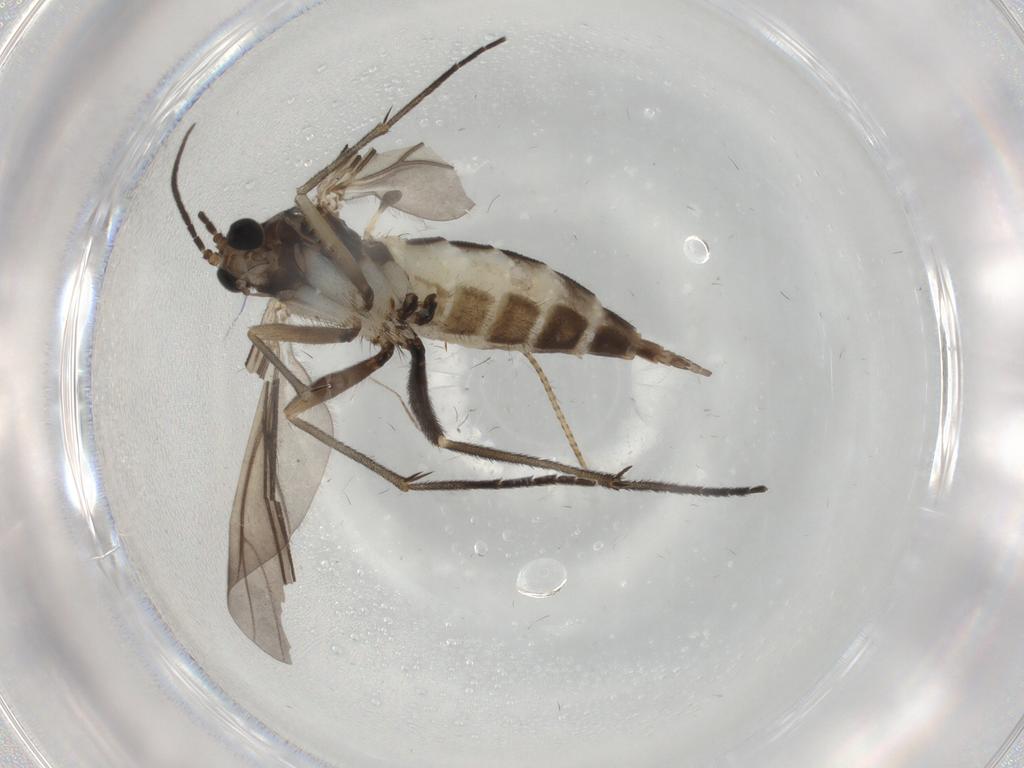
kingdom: Animalia
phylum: Arthropoda
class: Insecta
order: Diptera
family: Sciaridae
